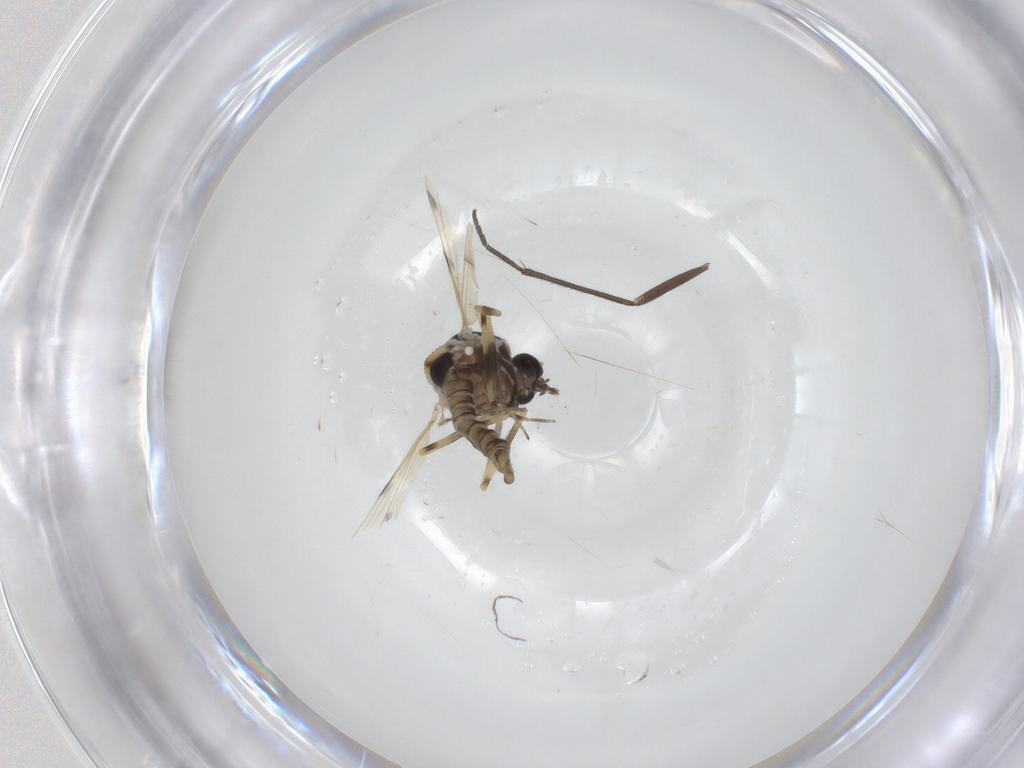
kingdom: Animalia
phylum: Arthropoda
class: Insecta
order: Diptera
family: Ceratopogonidae
